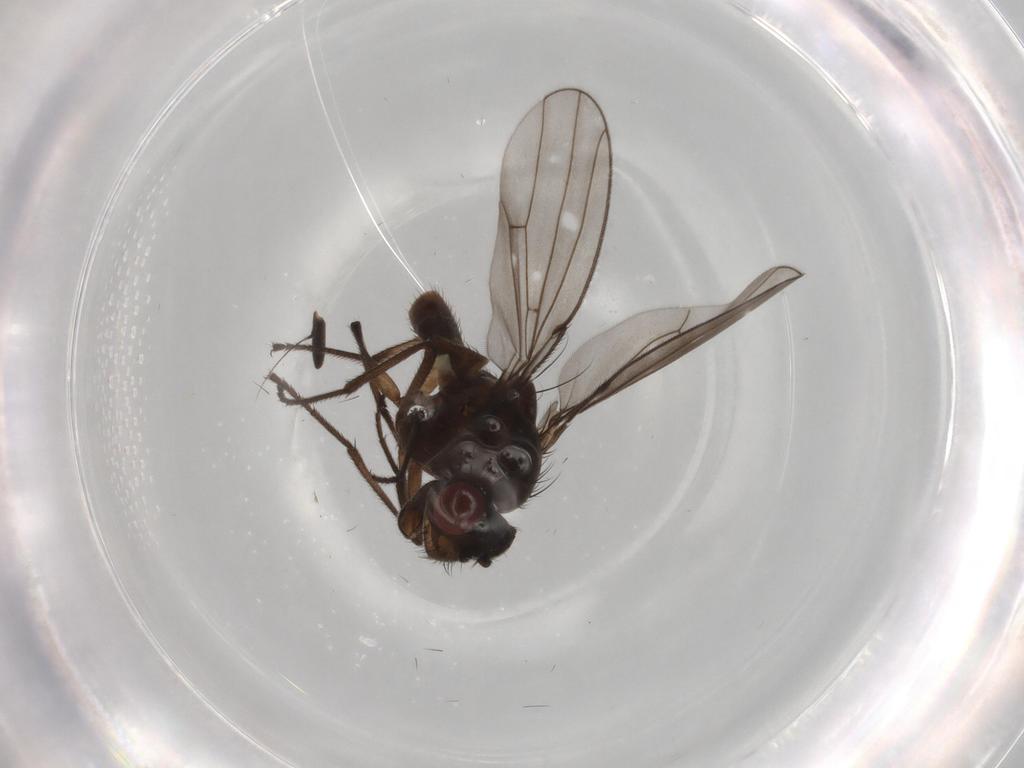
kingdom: Animalia
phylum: Arthropoda
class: Insecta
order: Diptera
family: Ephydridae
